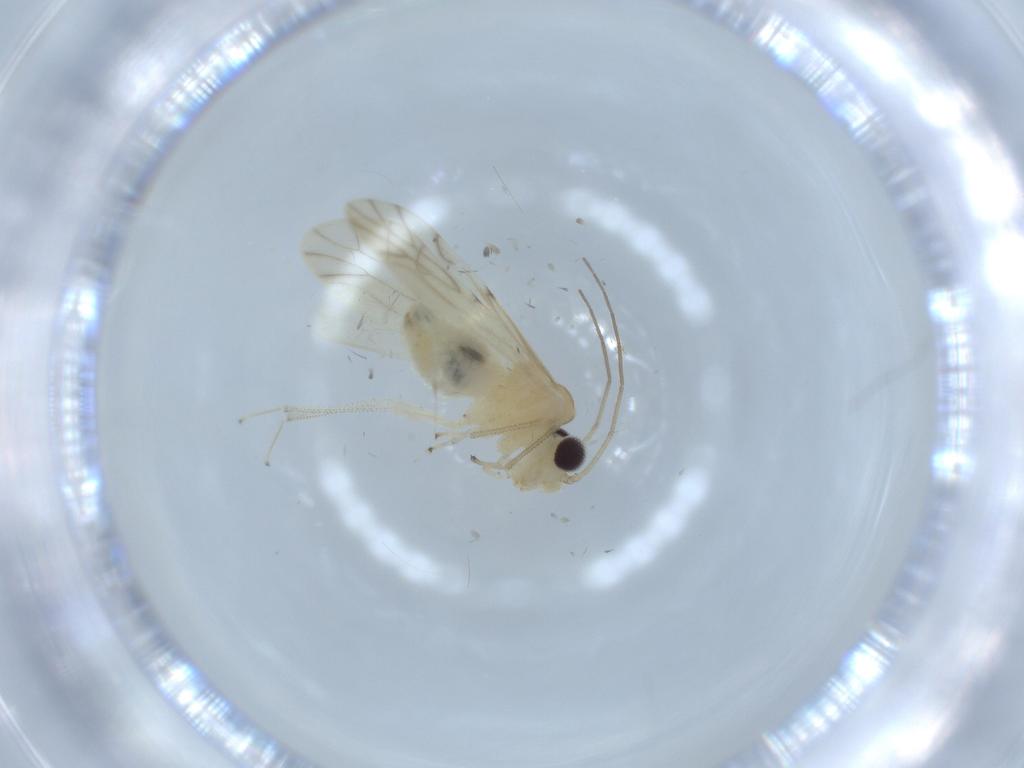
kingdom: Animalia
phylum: Arthropoda
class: Insecta
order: Psocodea
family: Caeciliusidae
